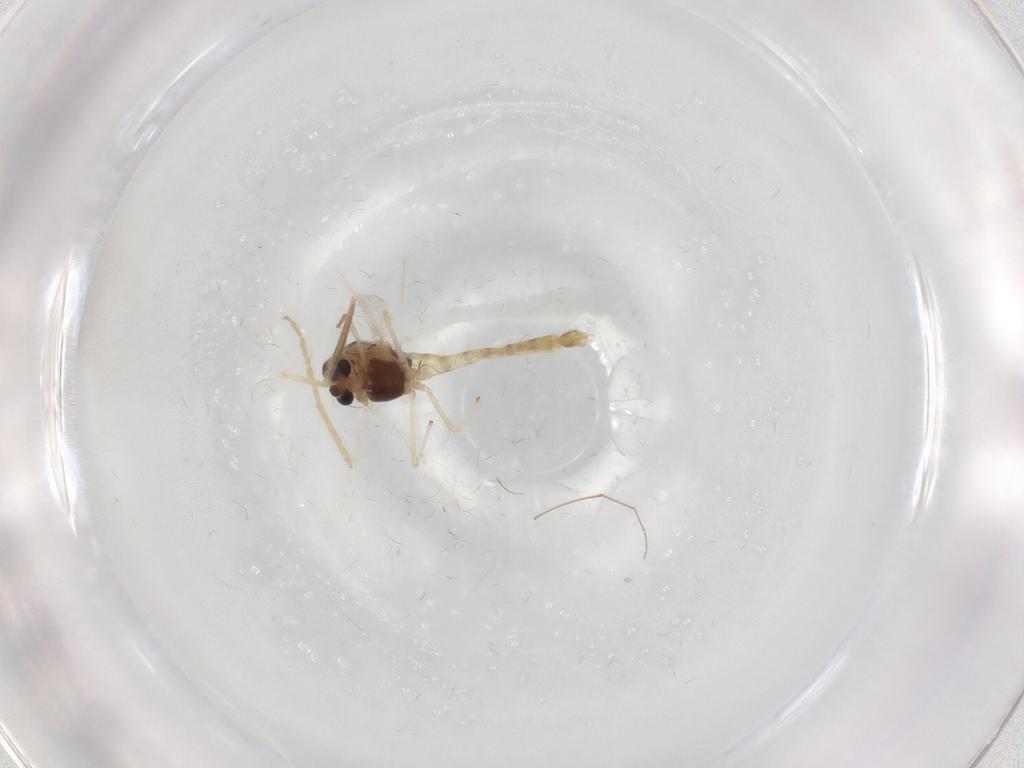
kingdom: Animalia
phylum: Arthropoda
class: Insecta
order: Diptera
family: Chironomidae
